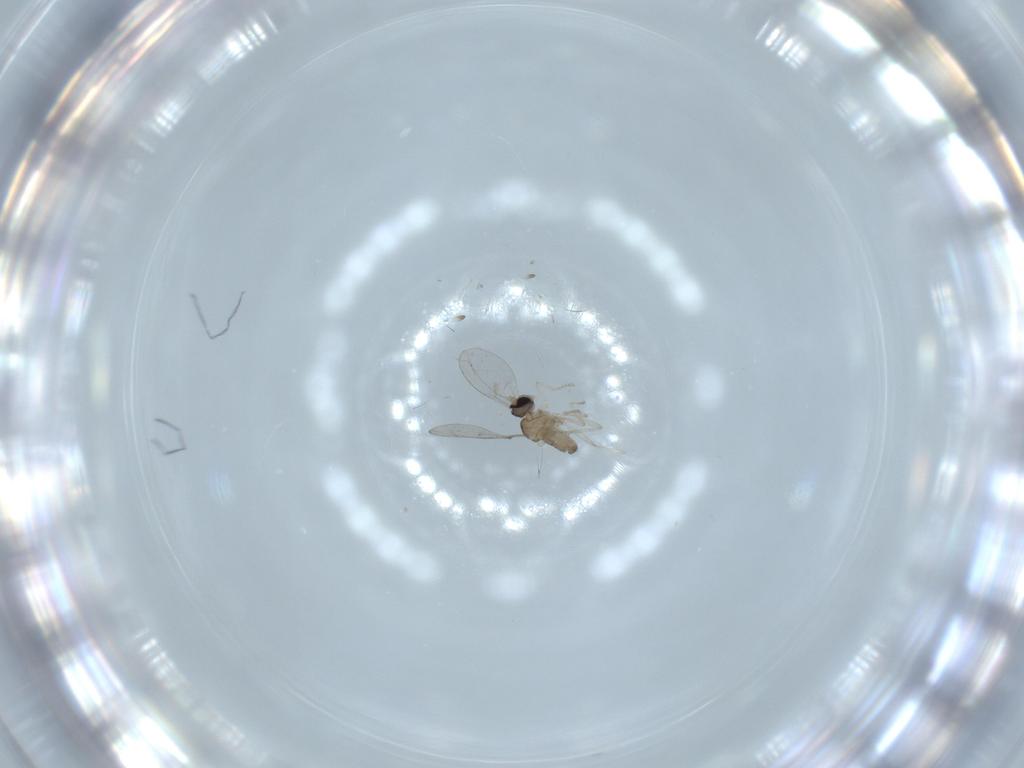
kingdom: Animalia
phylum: Arthropoda
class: Insecta
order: Diptera
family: Cecidomyiidae
